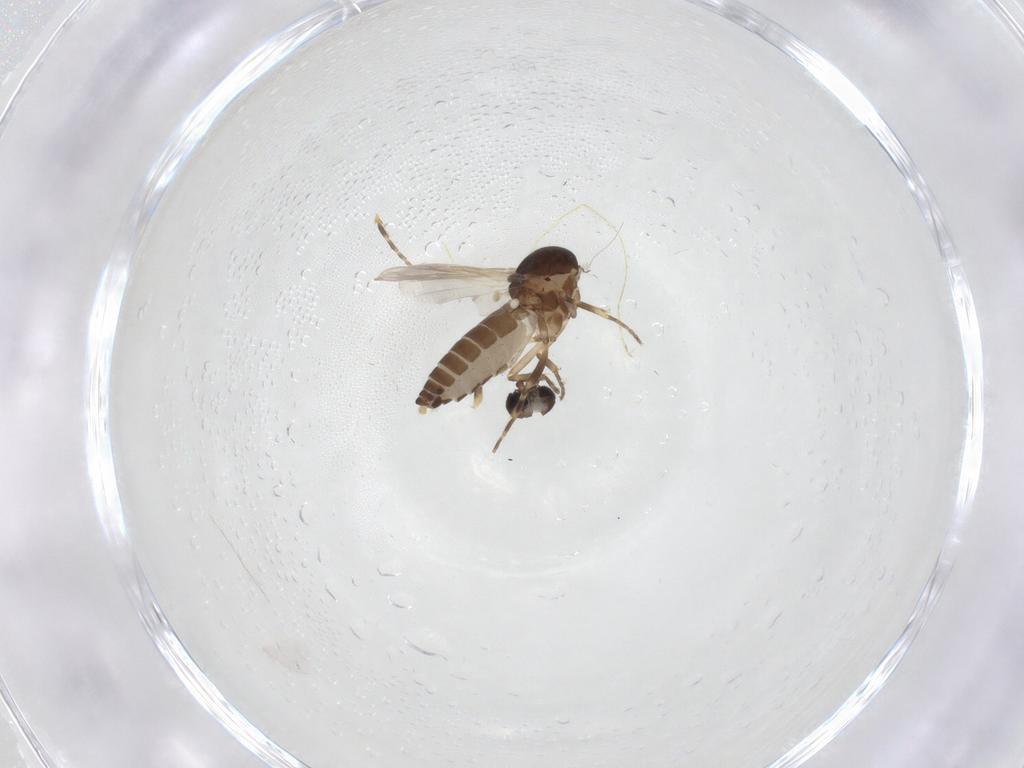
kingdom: Animalia
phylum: Arthropoda
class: Insecta
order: Diptera
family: Ceratopogonidae
